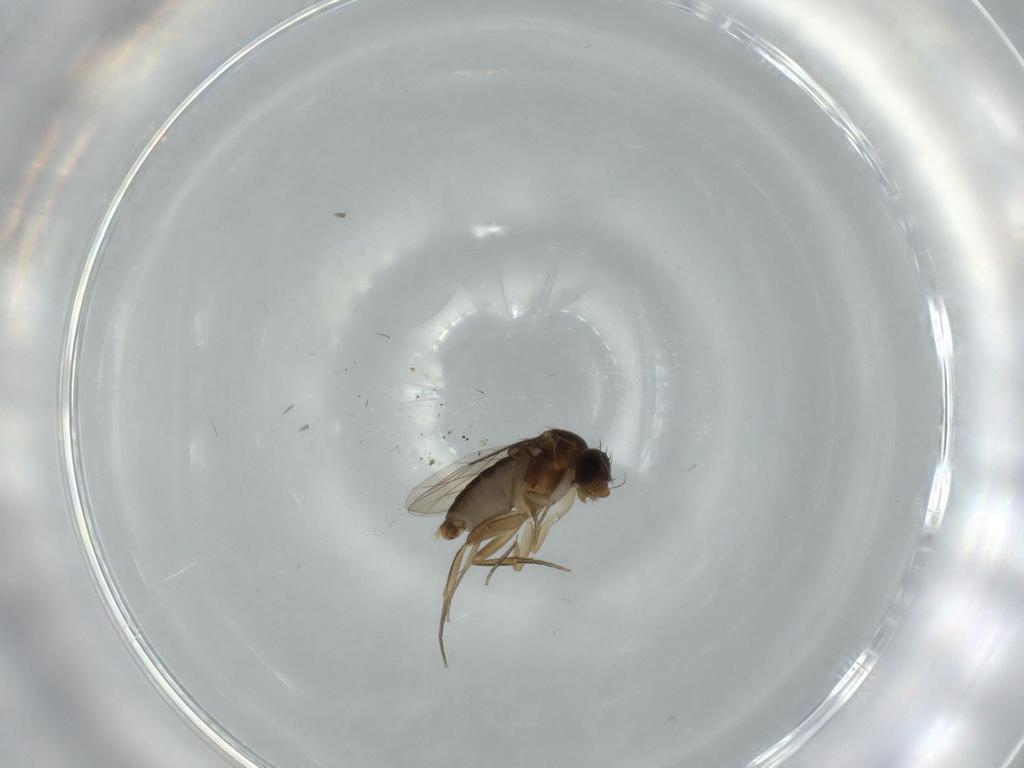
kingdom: Animalia
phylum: Arthropoda
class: Insecta
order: Diptera
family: Phoridae
